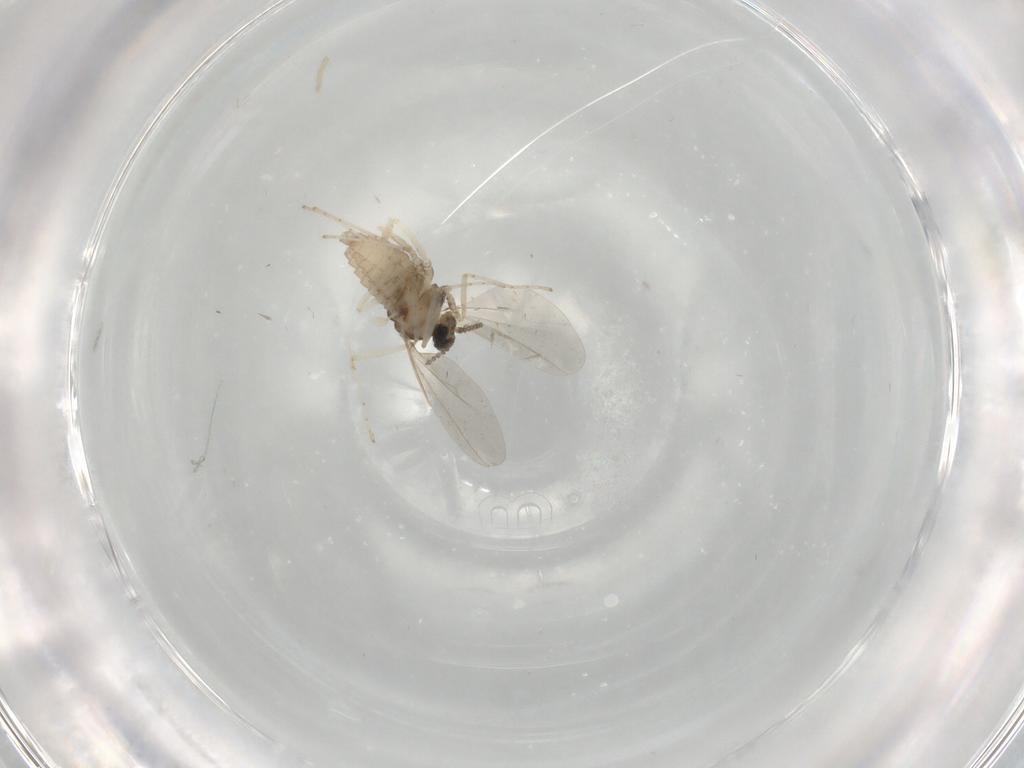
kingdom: Animalia
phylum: Arthropoda
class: Insecta
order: Diptera
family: Cecidomyiidae
